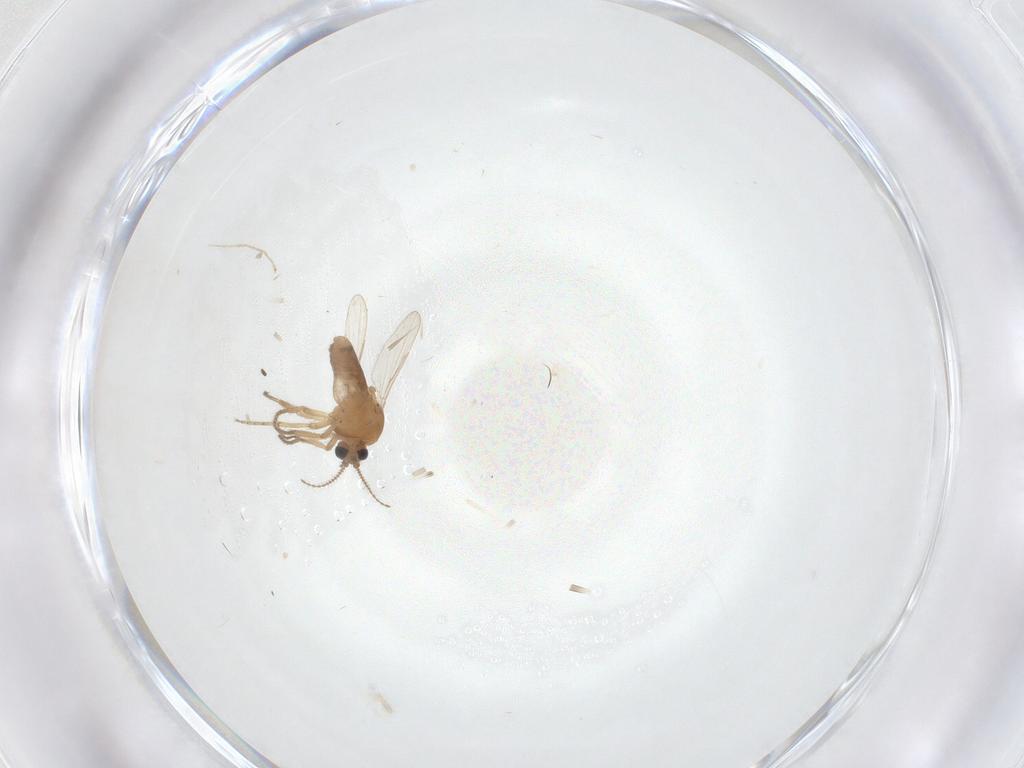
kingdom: Animalia
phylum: Arthropoda
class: Insecta
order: Diptera
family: Ceratopogonidae
